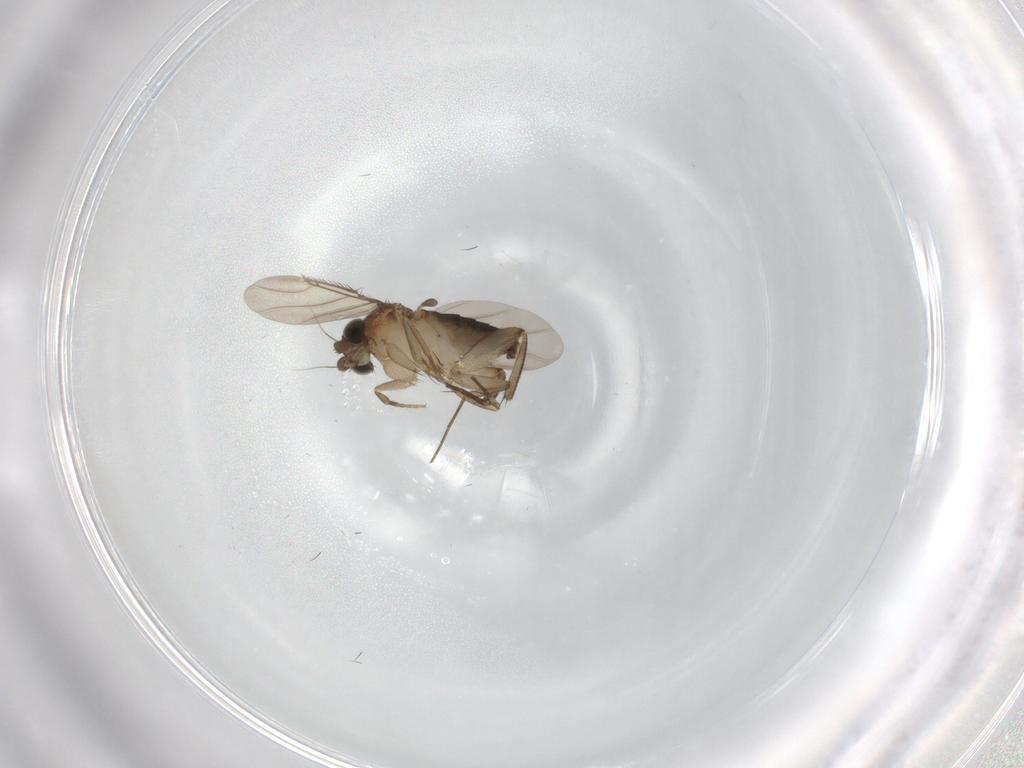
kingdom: Animalia
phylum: Arthropoda
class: Insecta
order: Diptera
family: Phoridae
